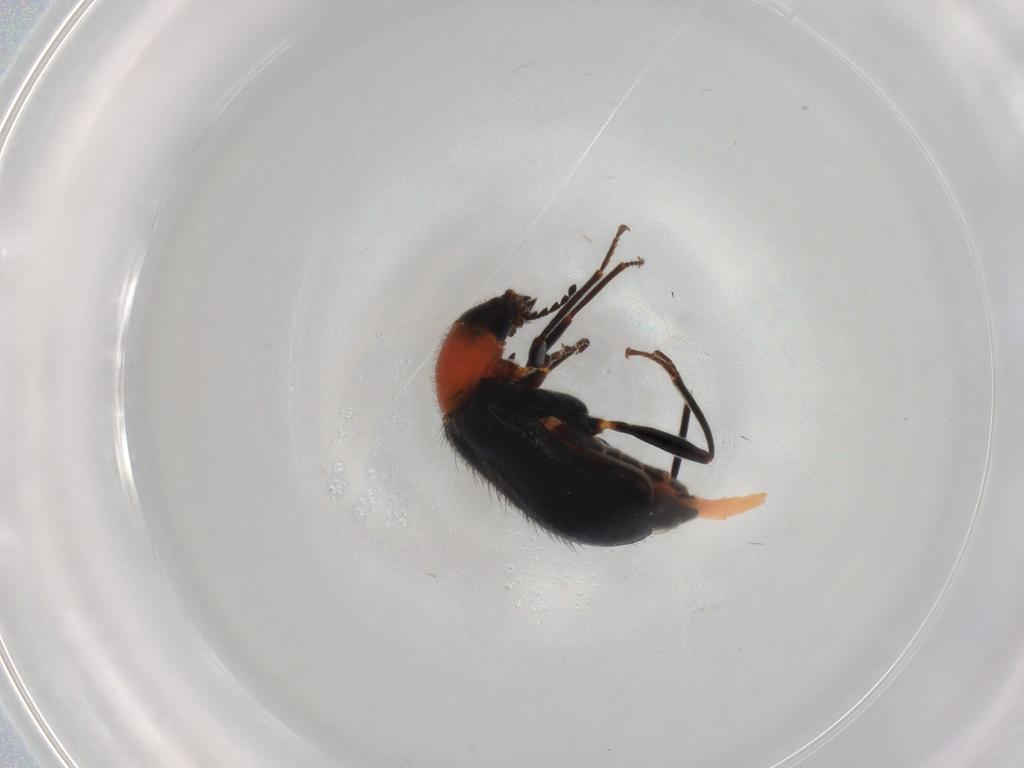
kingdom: Animalia
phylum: Arthropoda
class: Insecta
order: Coleoptera
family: Melyridae
